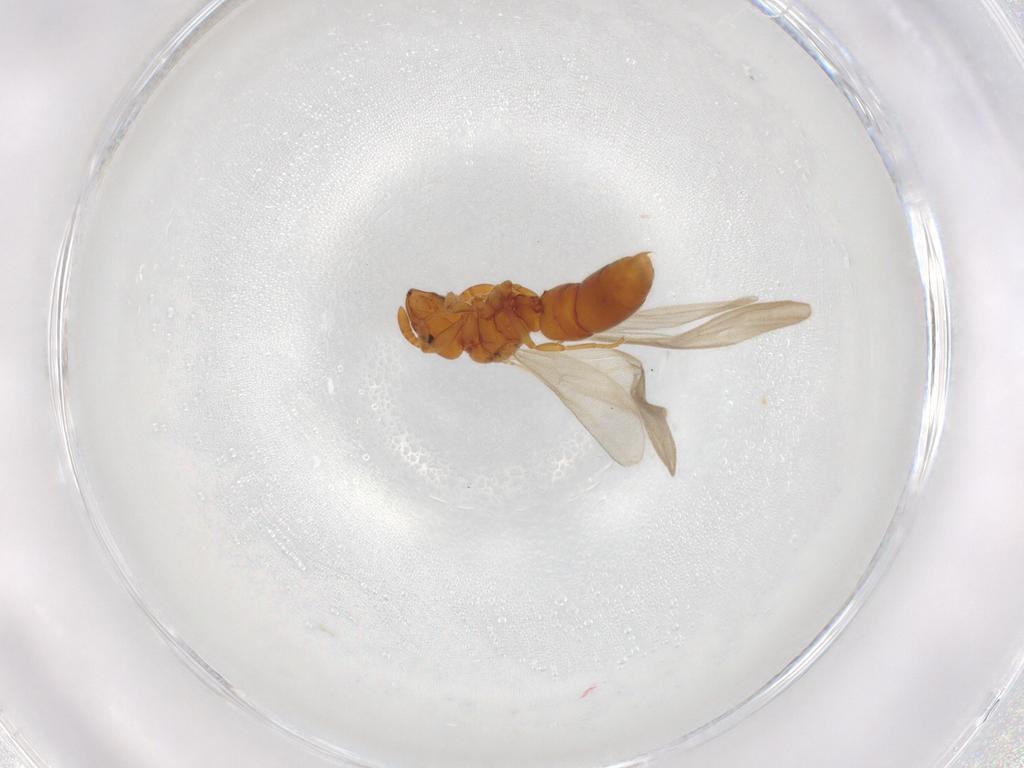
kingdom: Animalia
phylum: Arthropoda
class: Insecta
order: Hymenoptera
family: Formicidae
